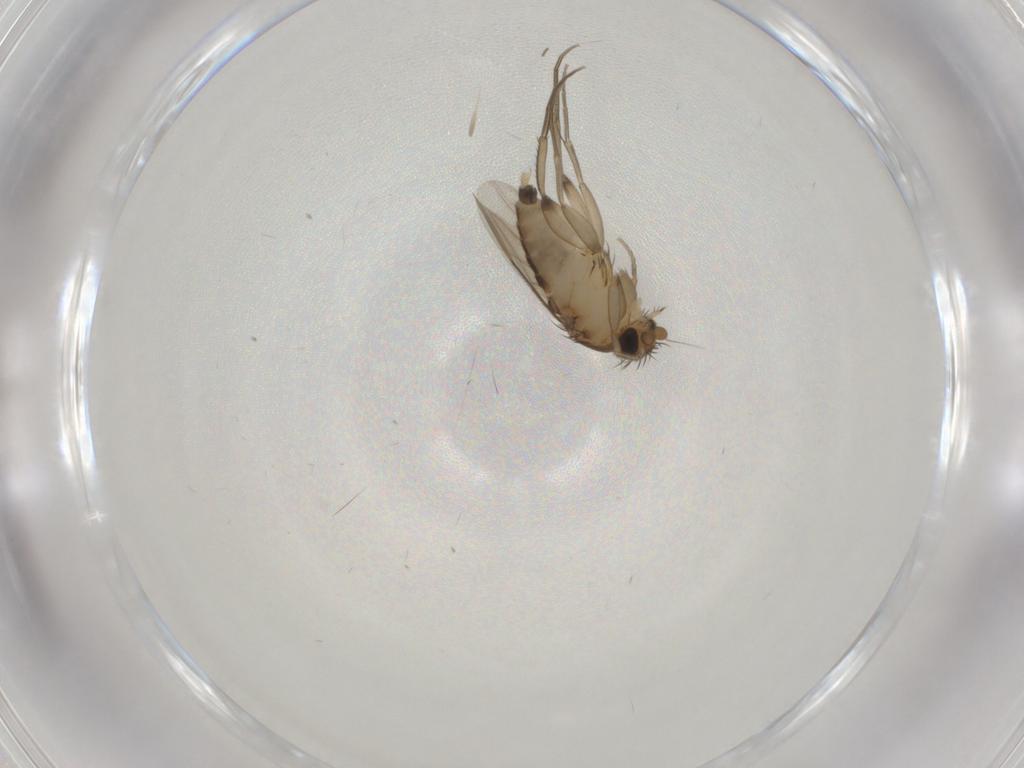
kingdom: Animalia
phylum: Arthropoda
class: Insecta
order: Diptera
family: Phoridae
